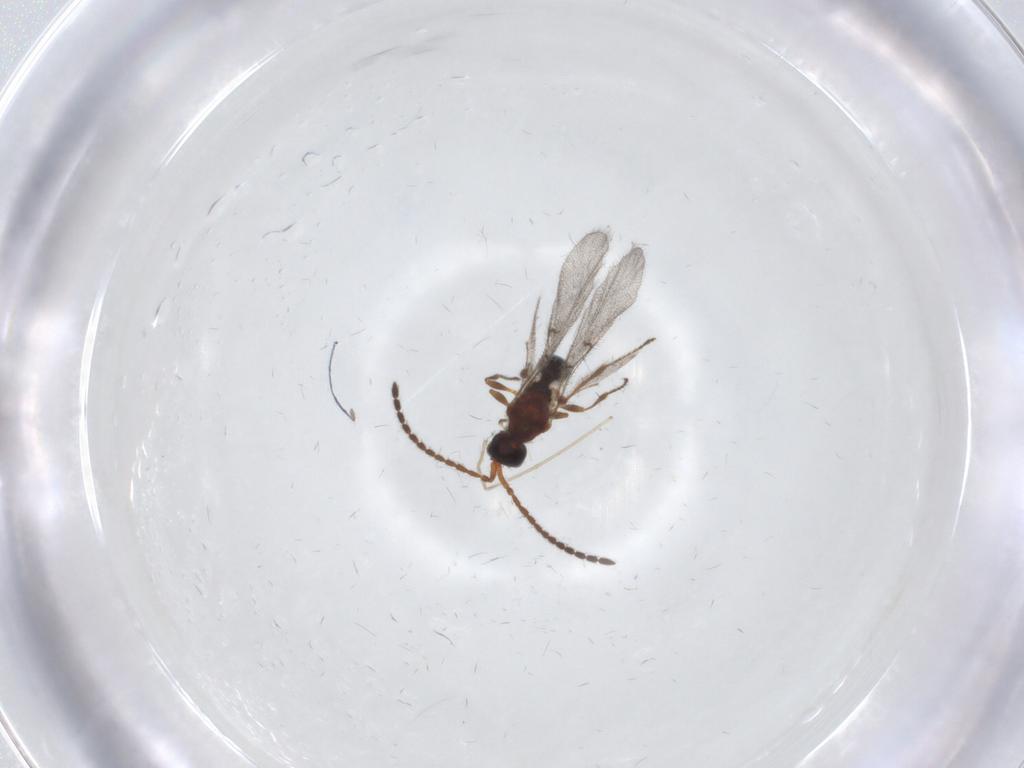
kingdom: Animalia
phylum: Arthropoda
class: Insecta
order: Hymenoptera
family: Diapriidae
